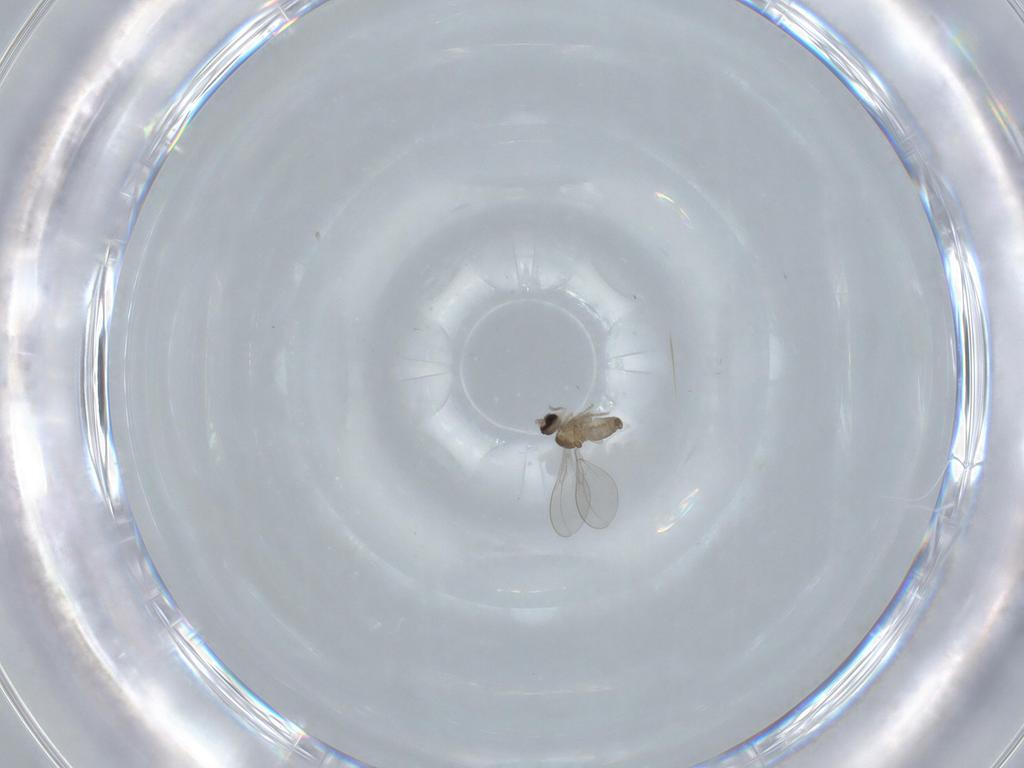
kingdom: Animalia
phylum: Arthropoda
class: Insecta
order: Diptera
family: Cecidomyiidae
